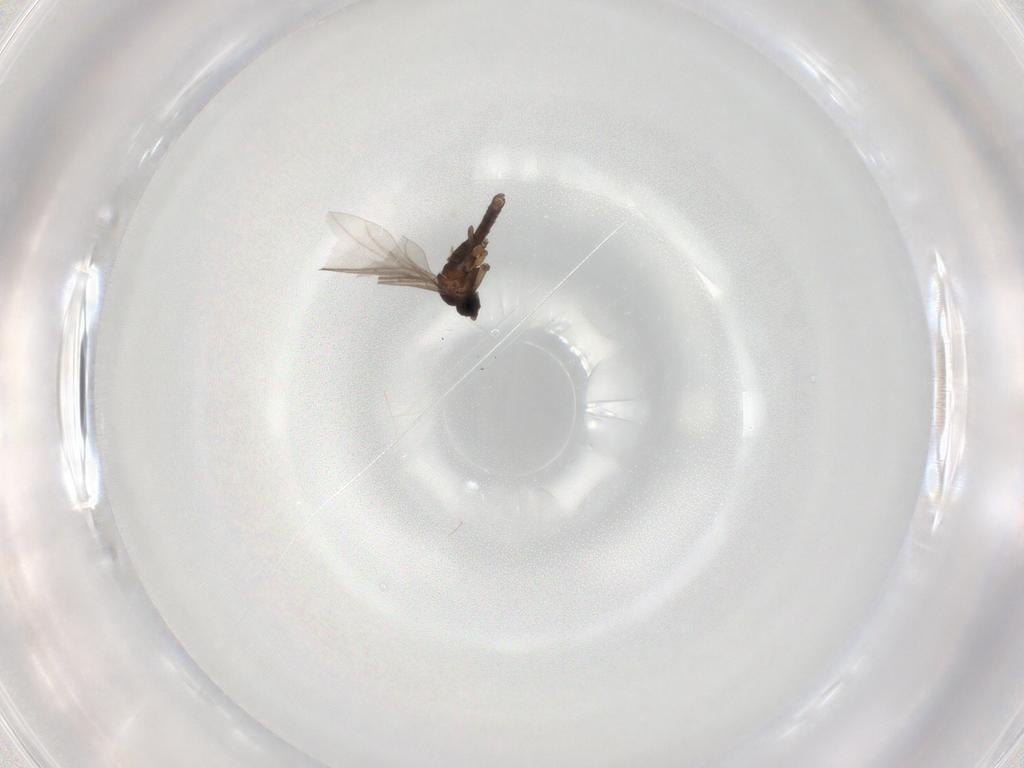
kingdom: Animalia
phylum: Arthropoda
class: Insecta
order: Diptera
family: Sciaridae
